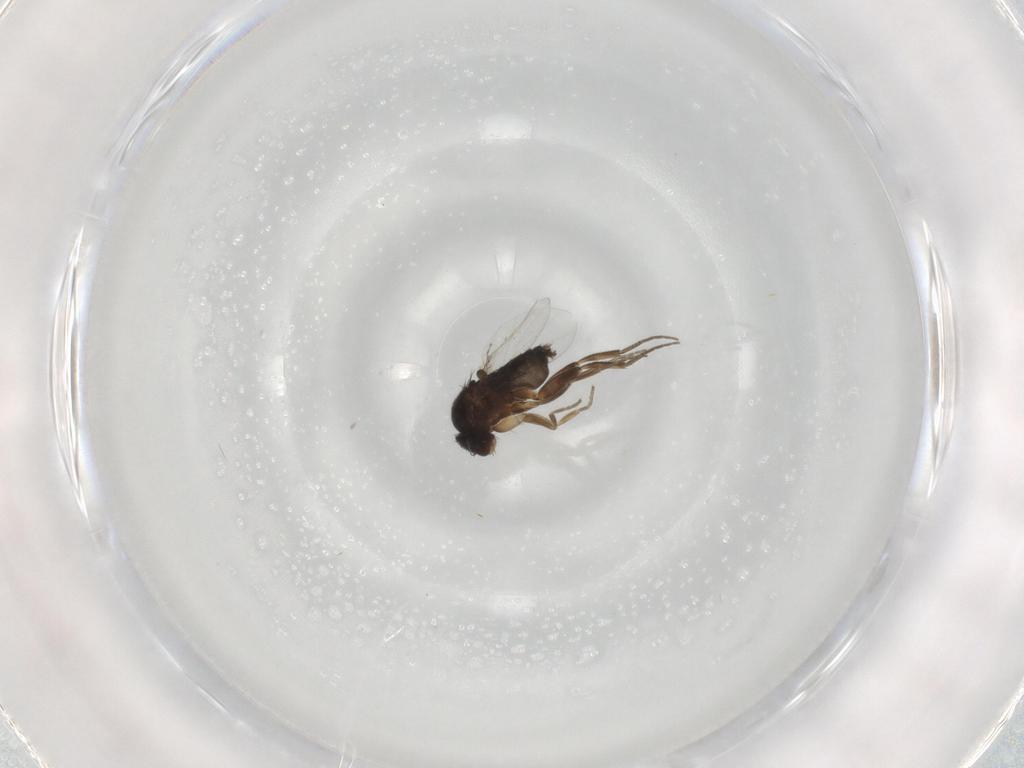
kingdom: Animalia
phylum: Arthropoda
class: Insecta
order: Diptera
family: Phoridae
